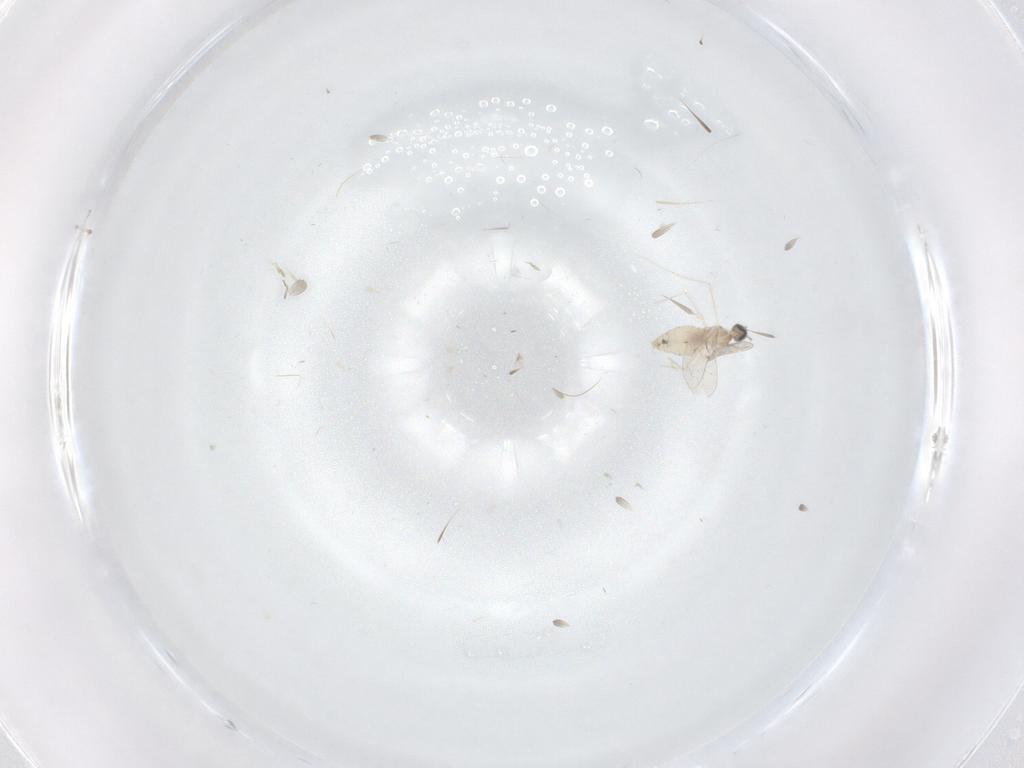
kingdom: Animalia
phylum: Arthropoda
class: Insecta
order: Diptera
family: Cecidomyiidae
